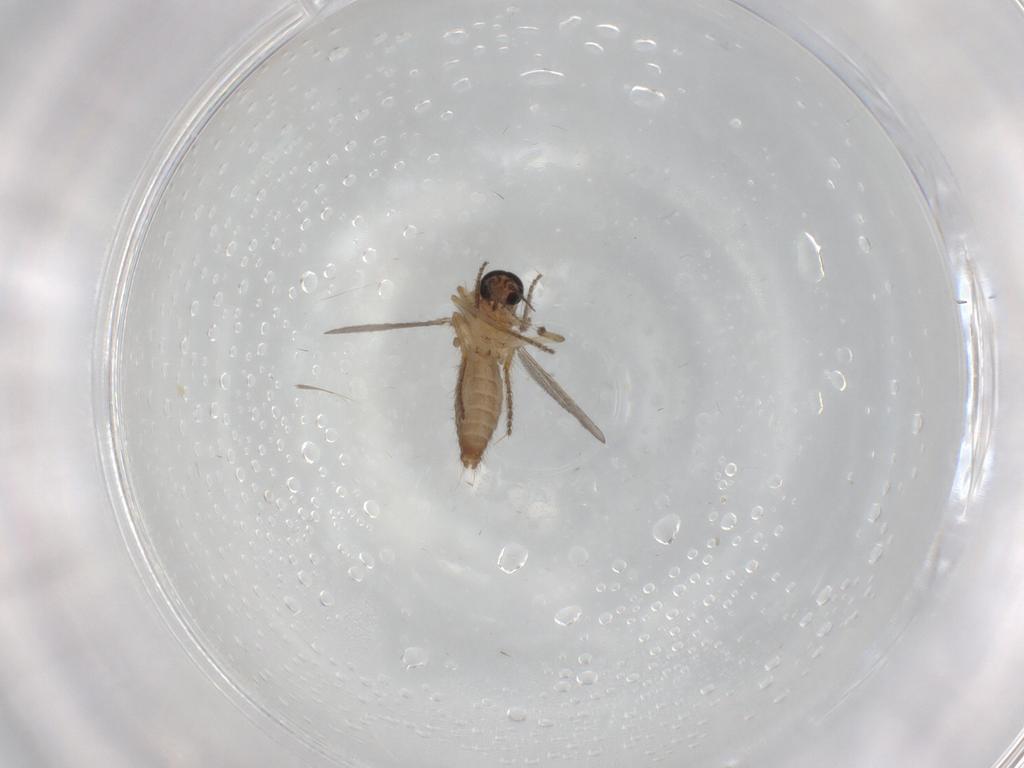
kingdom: Animalia
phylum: Arthropoda
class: Insecta
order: Diptera
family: Ceratopogonidae
